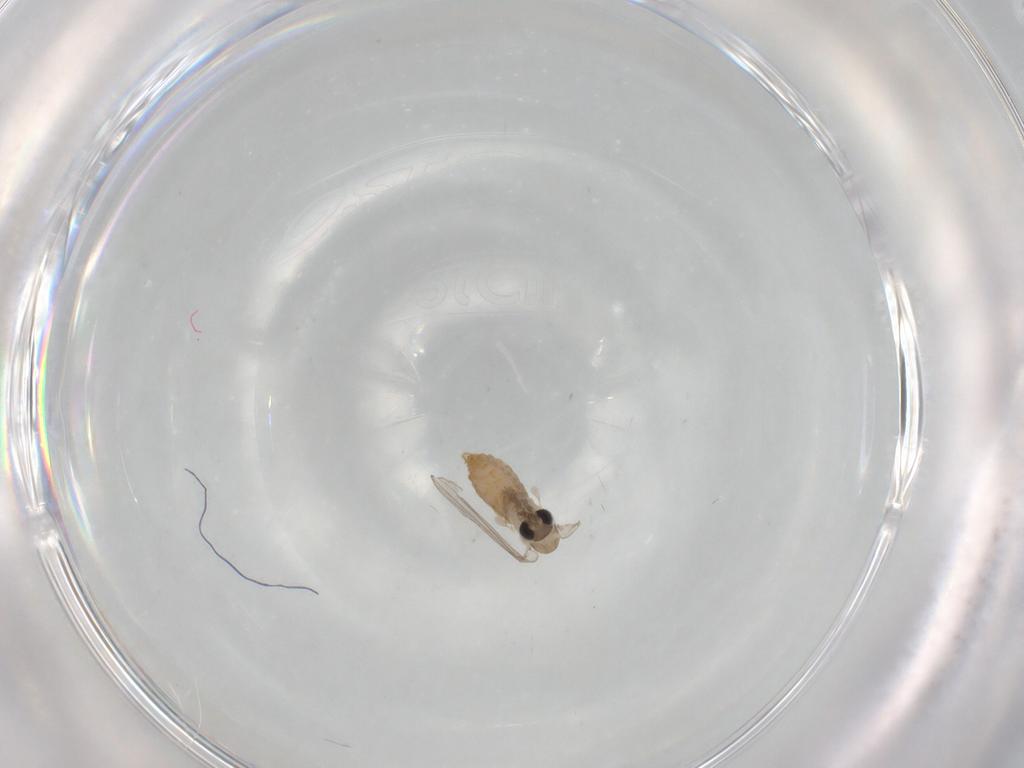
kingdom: Animalia
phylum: Arthropoda
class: Insecta
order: Diptera
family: Psychodidae
